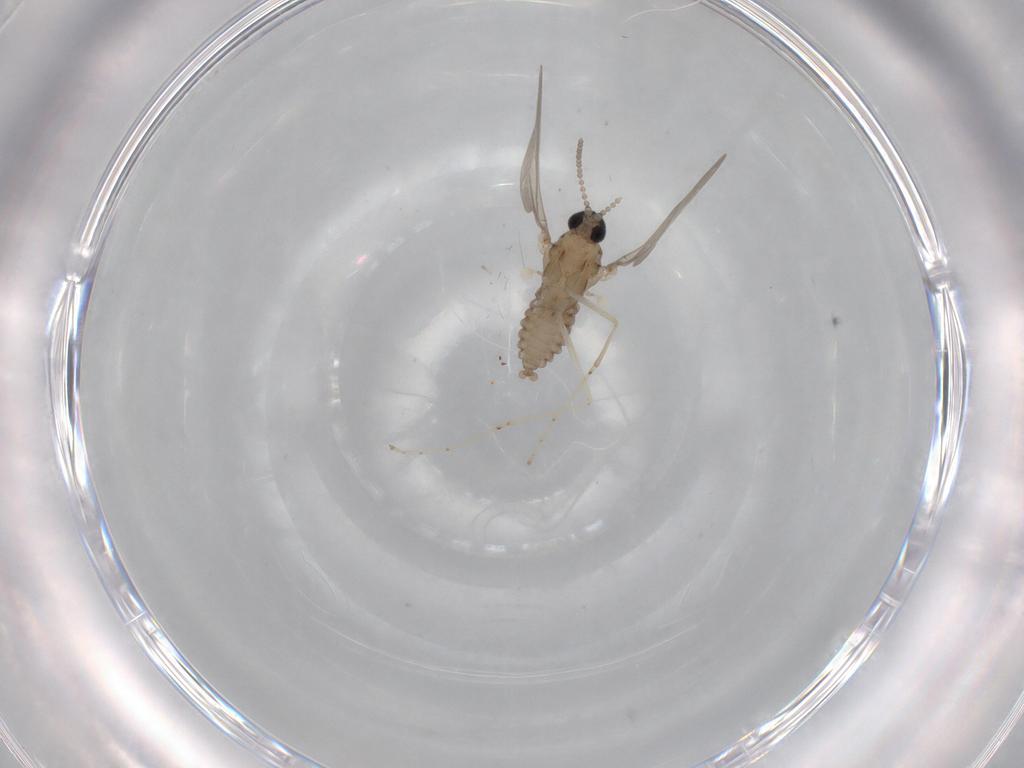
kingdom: Animalia
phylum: Arthropoda
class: Insecta
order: Diptera
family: Cecidomyiidae
